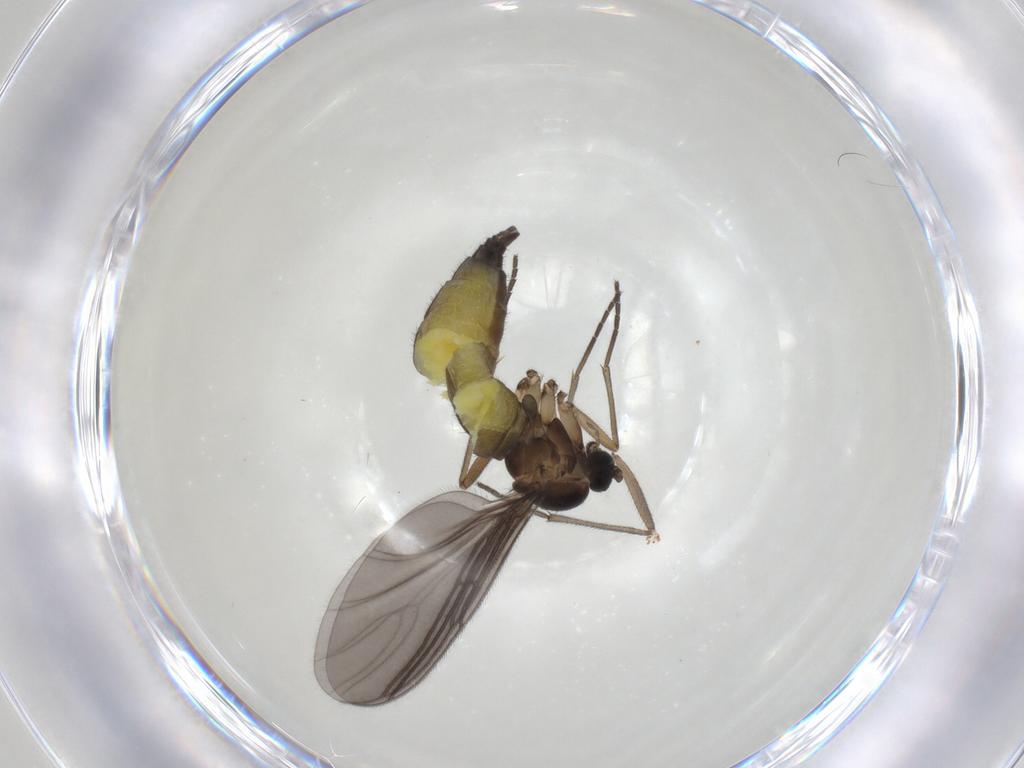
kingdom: Animalia
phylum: Arthropoda
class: Insecta
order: Diptera
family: Sciaridae
